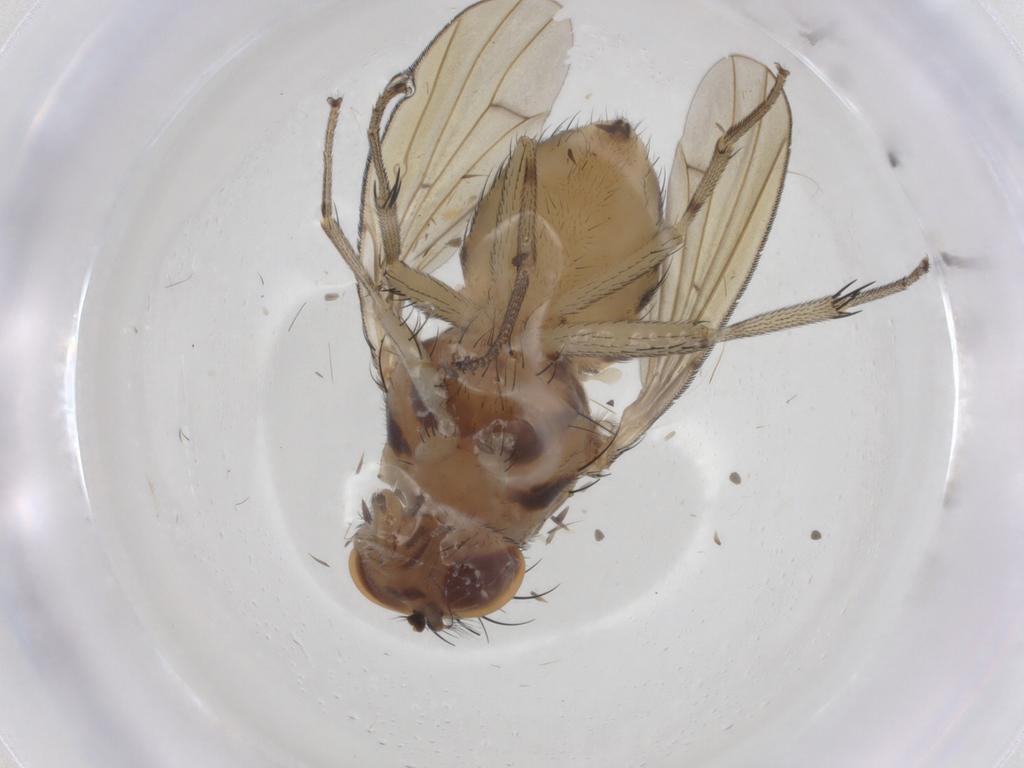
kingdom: Animalia
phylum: Arthropoda
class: Insecta
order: Diptera
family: Lauxaniidae
